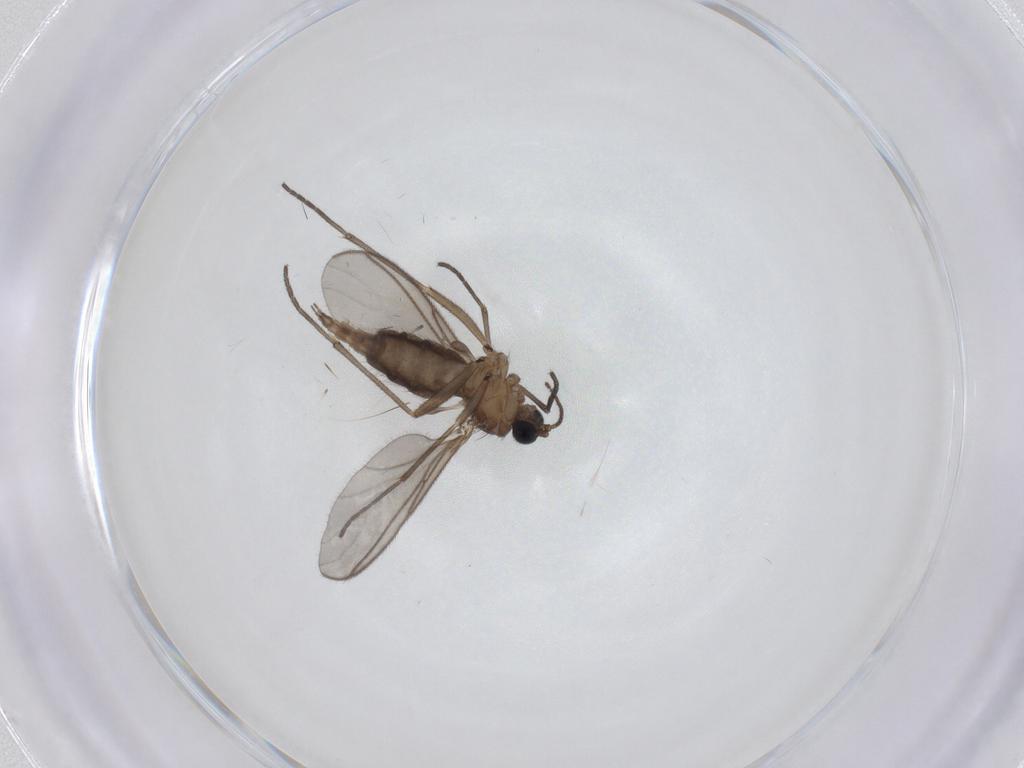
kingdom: Animalia
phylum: Arthropoda
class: Insecta
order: Diptera
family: Sciaridae
